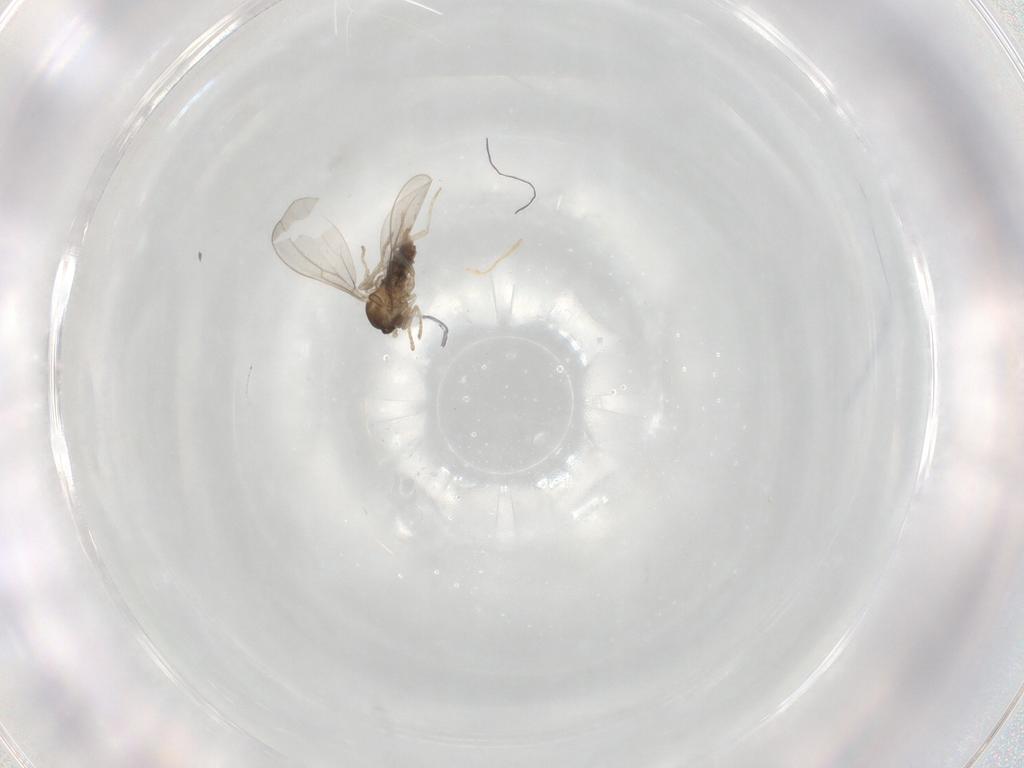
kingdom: Animalia
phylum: Arthropoda
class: Insecta
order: Diptera
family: Cecidomyiidae
